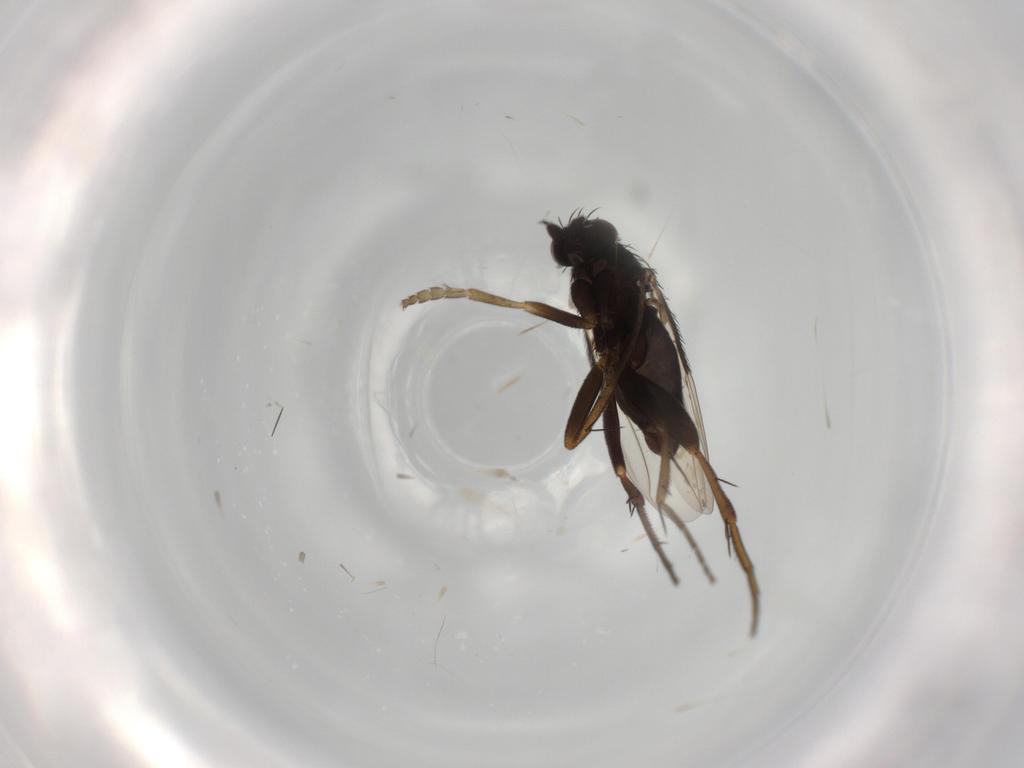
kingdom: Animalia
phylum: Arthropoda
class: Insecta
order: Diptera
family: Phoridae
